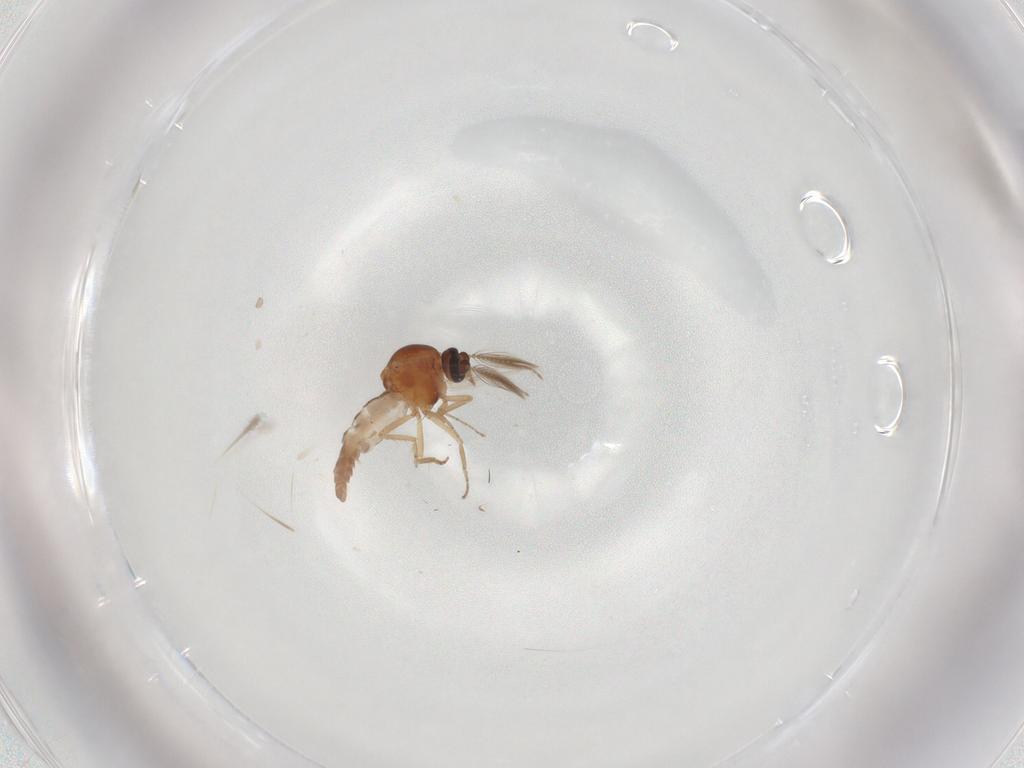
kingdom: Animalia
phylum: Arthropoda
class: Insecta
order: Diptera
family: Ceratopogonidae
